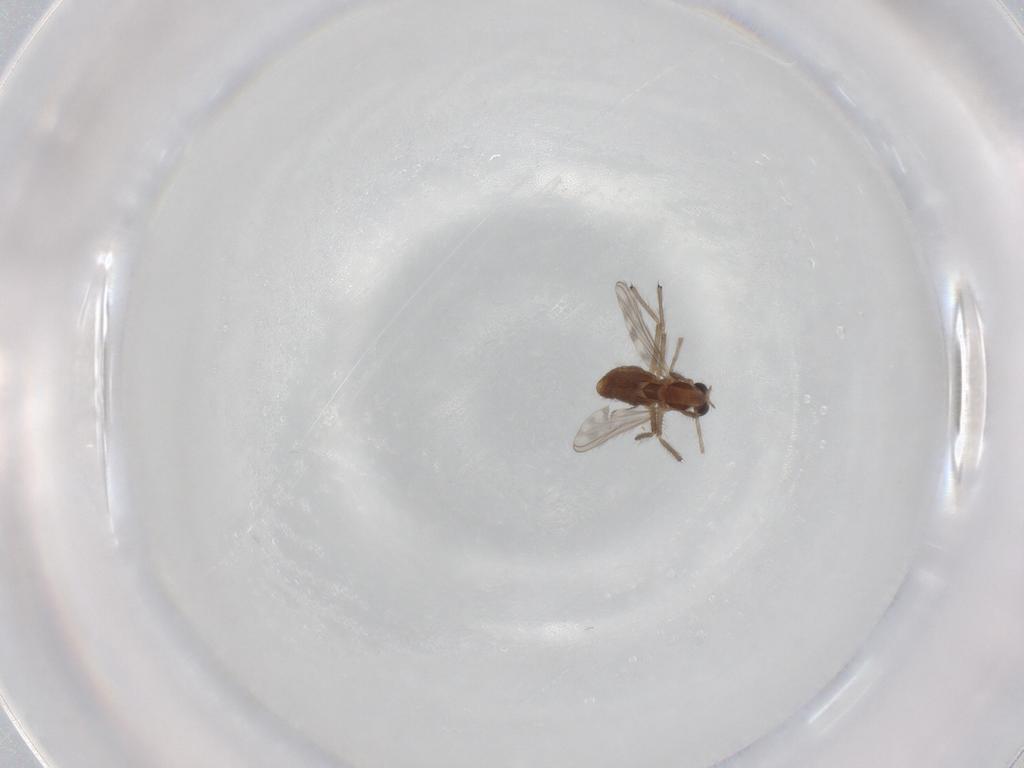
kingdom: Animalia
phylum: Arthropoda
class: Insecta
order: Diptera
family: Chironomidae
